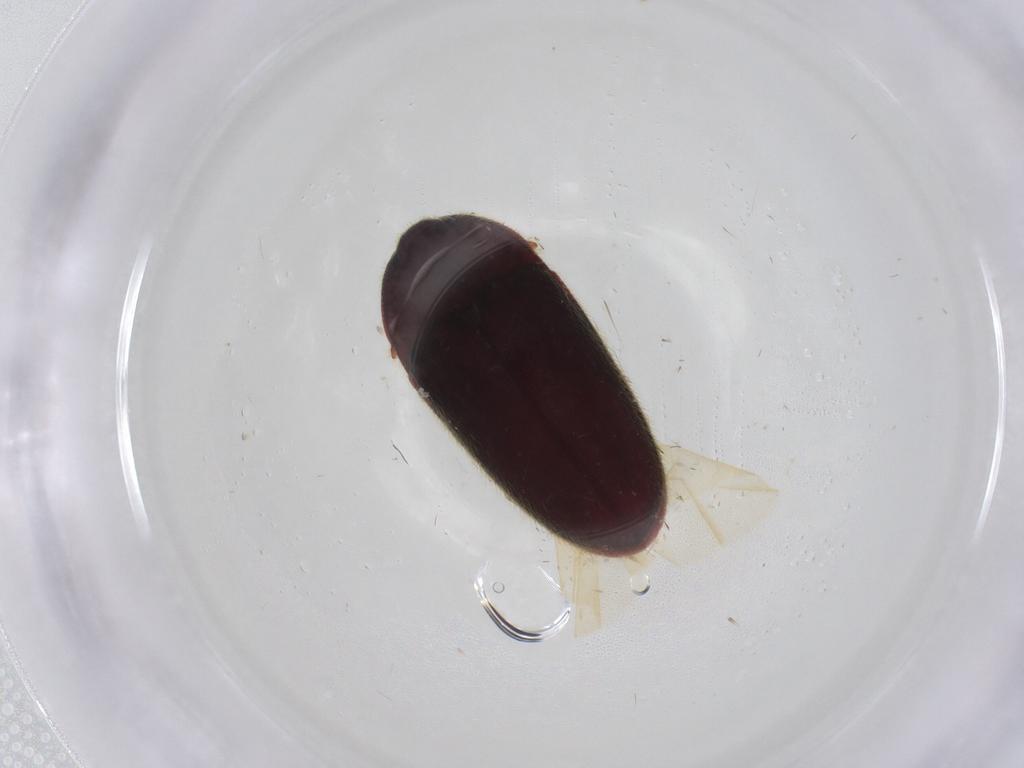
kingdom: Animalia
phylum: Arthropoda
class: Insecta
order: Coleoptera
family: Throscidae
